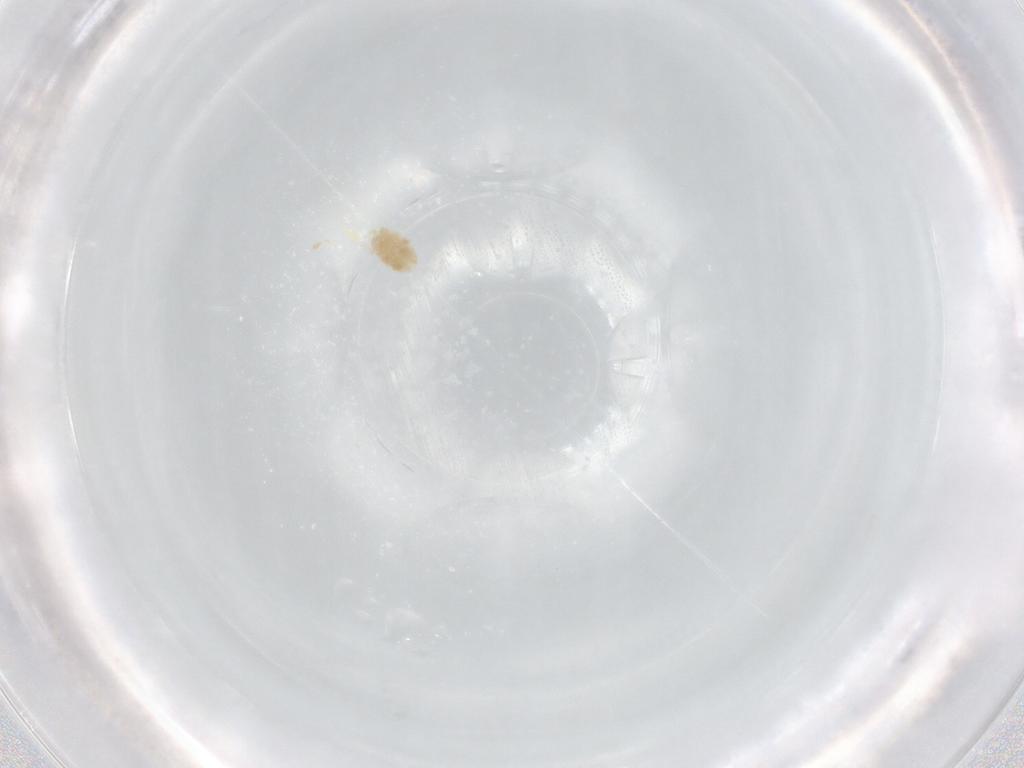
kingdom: Animalia
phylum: Arthropoda
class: Arachnida
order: Trombidiformes
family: Eupodidae
